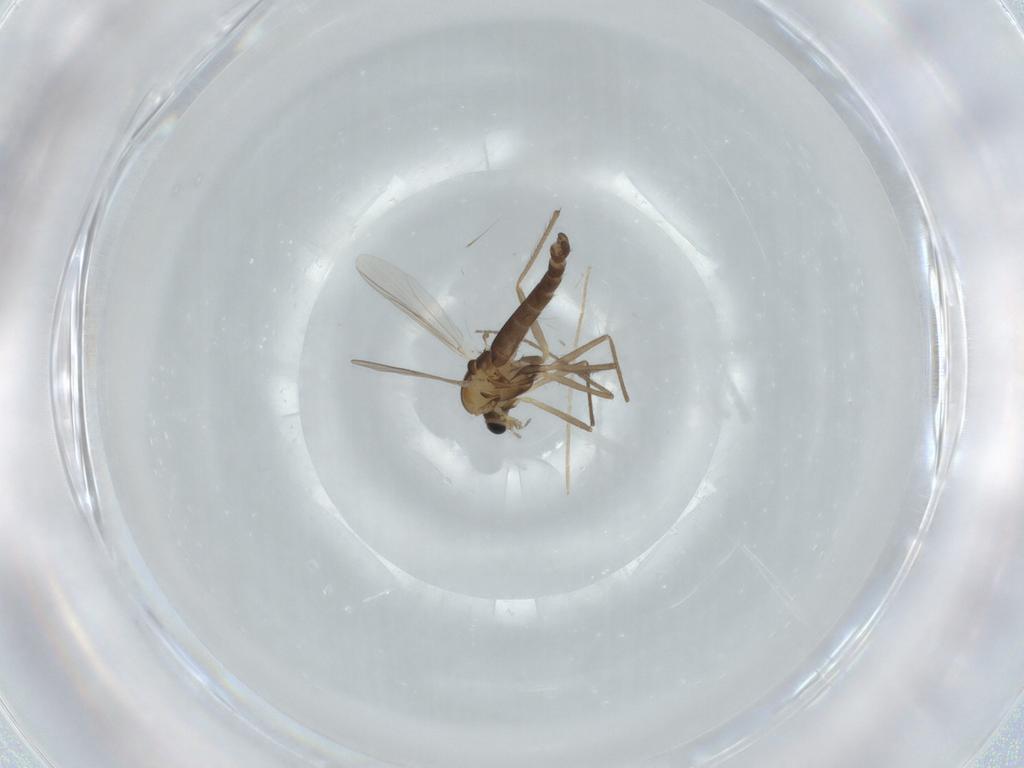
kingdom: Animalia
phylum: Arthropoda
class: Insecta
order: Diptera
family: Chironomidae
